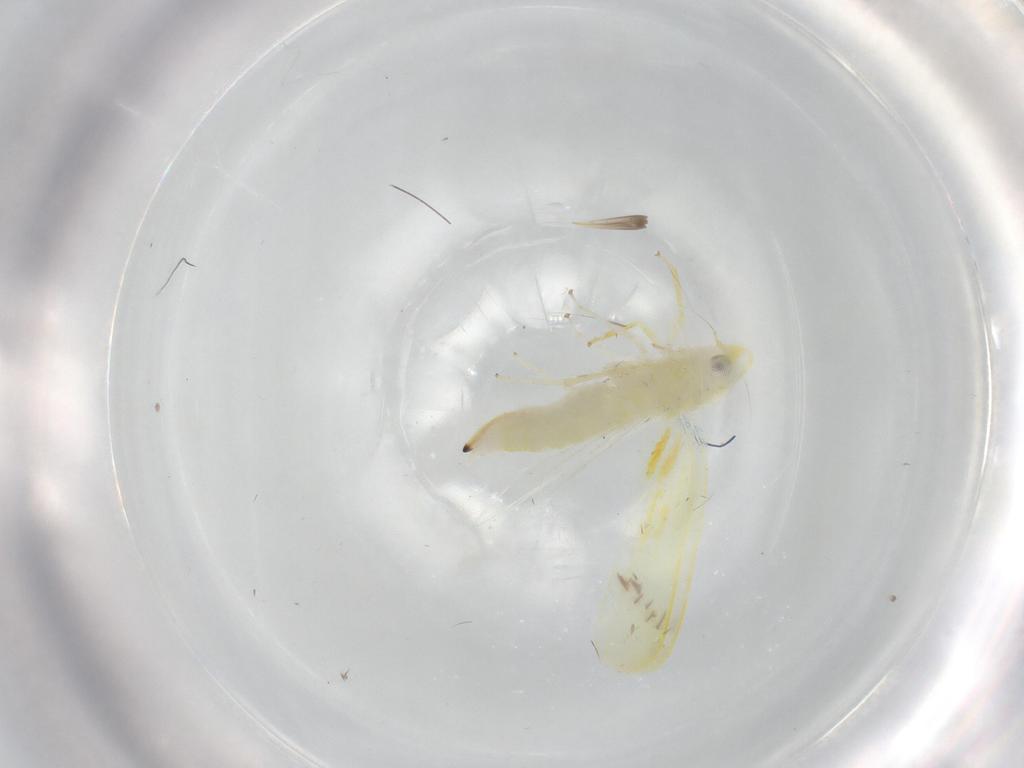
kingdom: Animalia
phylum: Arthropoda
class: Insecta
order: Hemiptera
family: Cicadellidae
